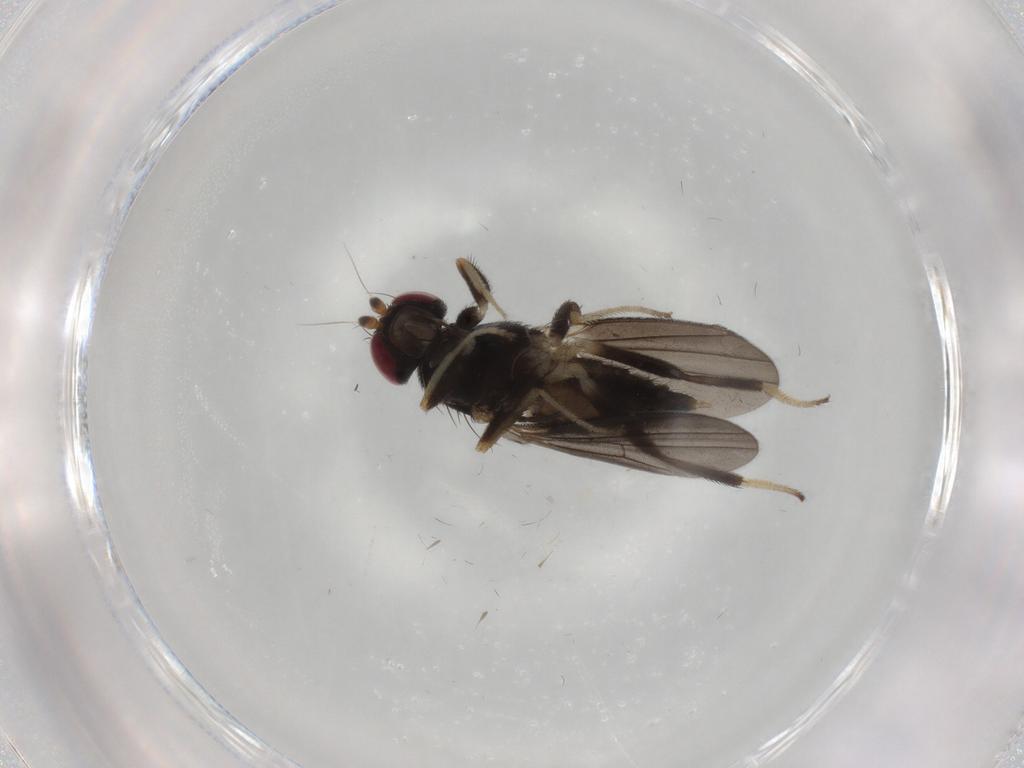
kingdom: Animalia
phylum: Arthropoda
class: Insecta
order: Diptera
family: Clusiidae
